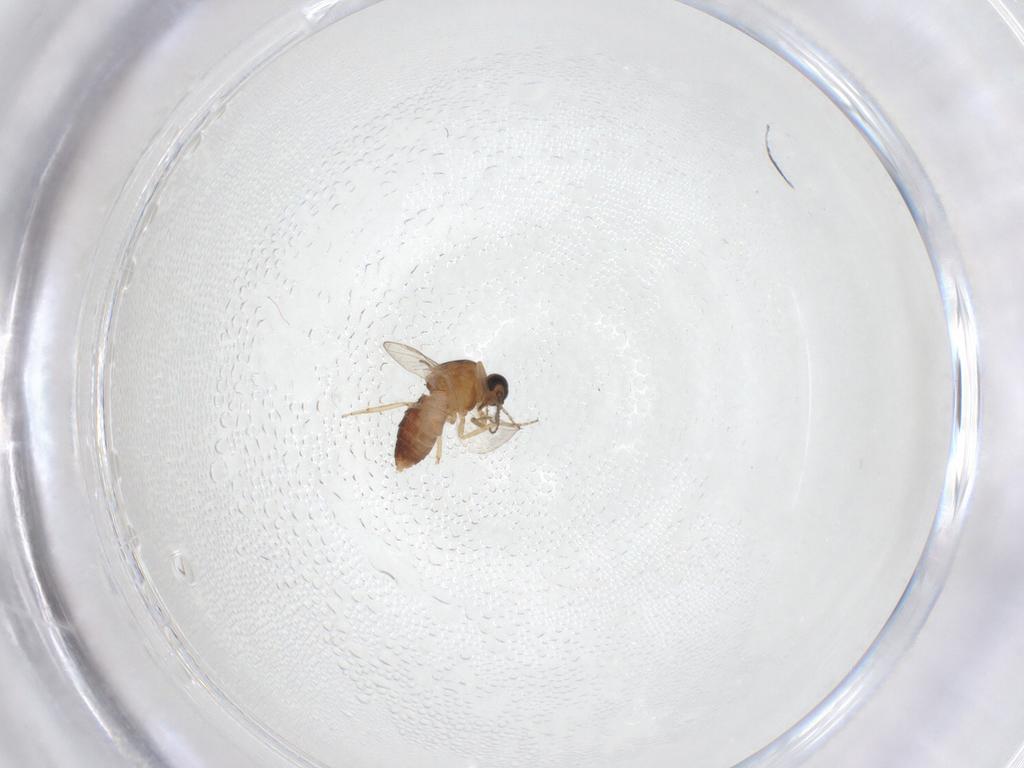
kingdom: Animalia
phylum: Arthropoda
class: Insecta
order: Diptera
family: Ceratopogonidae
